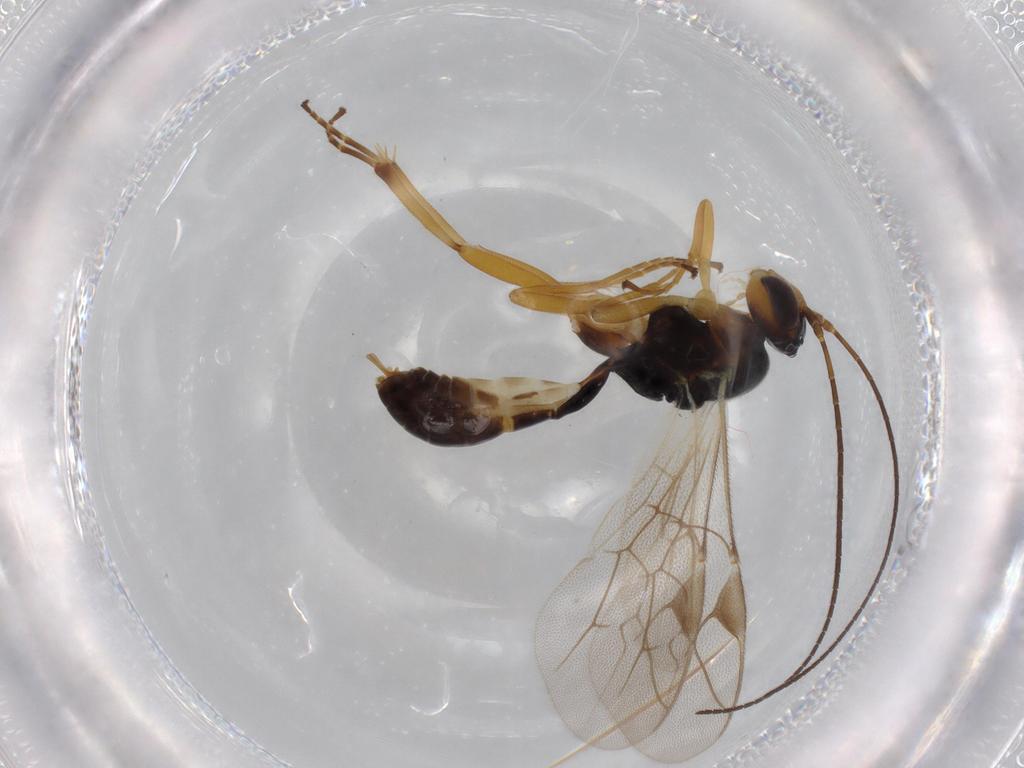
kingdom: Animalia
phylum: Arthropoda
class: Insecta
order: Hymenoptera
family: Ichneumonidae
